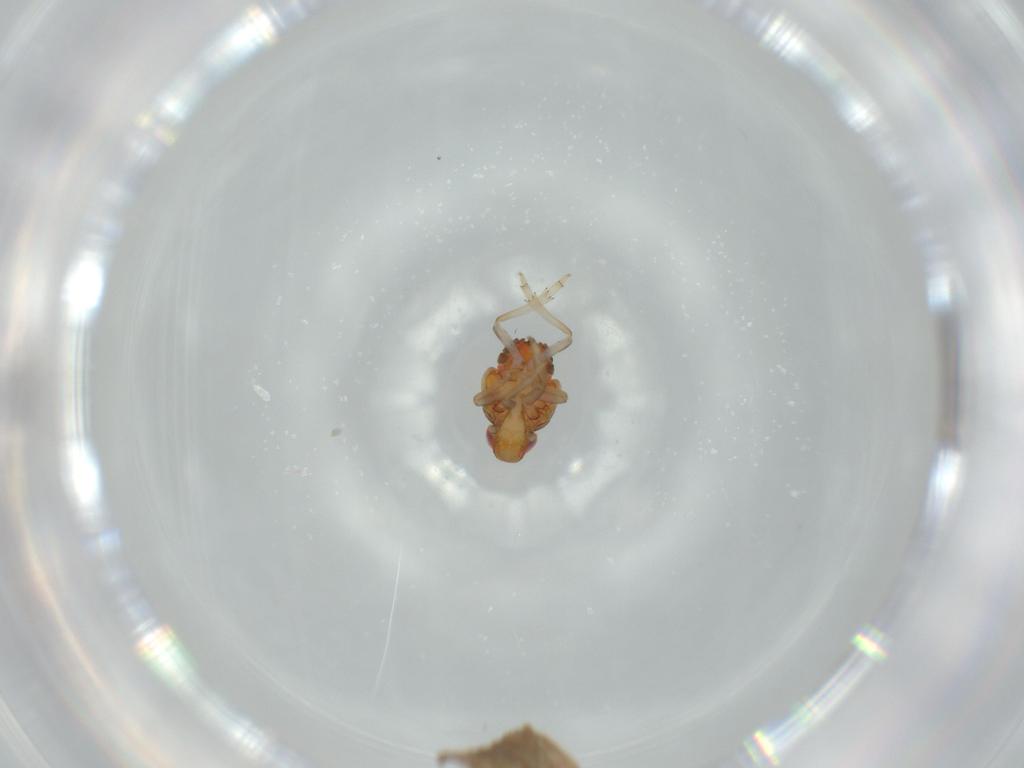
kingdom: Animalia
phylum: Arthropoda
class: Insecta
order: Hemiptera
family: Issidae
